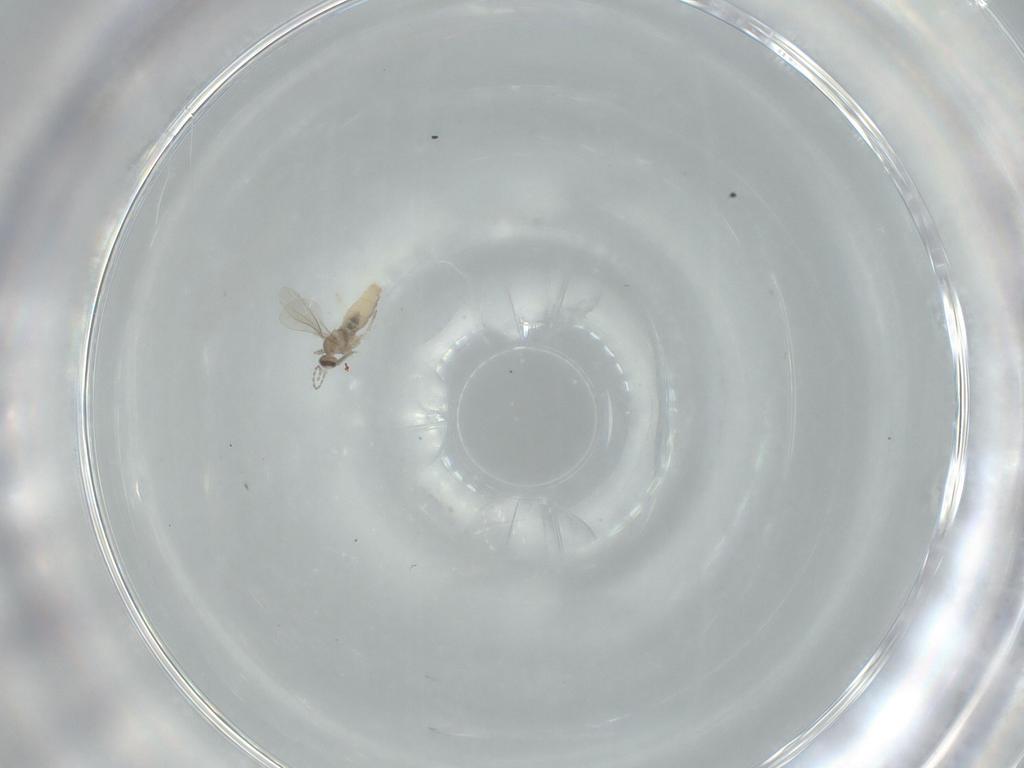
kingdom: Animalia
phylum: Arthropoda
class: Insecta
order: Diptera
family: Cecidomyiidae
